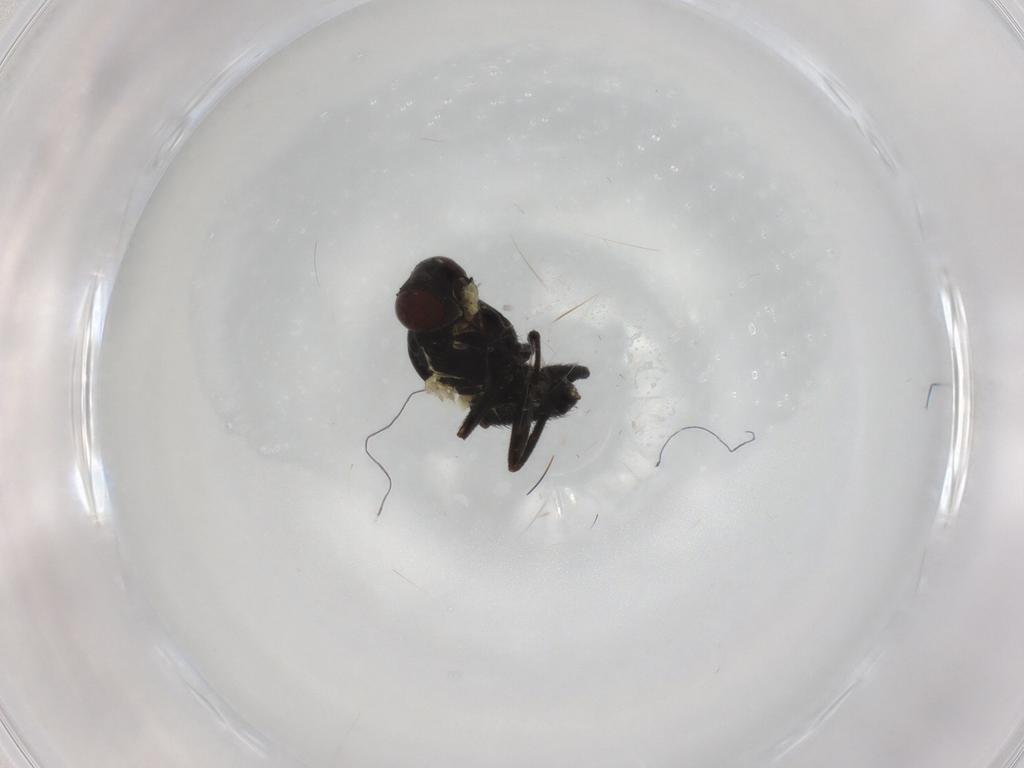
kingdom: Animalia
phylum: Arthropoda
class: Insecta
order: Diptera
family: Agromyzidae
